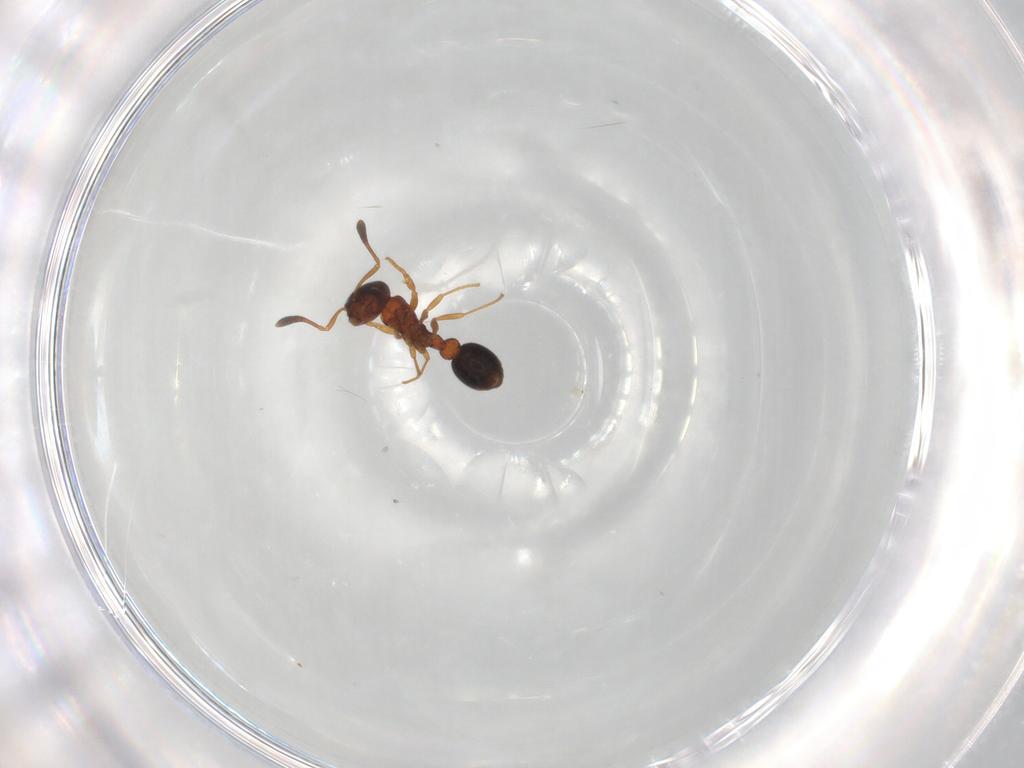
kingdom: Animalia
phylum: Arthropoda
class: Insecta
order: Hymenoptera
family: Formicidae
